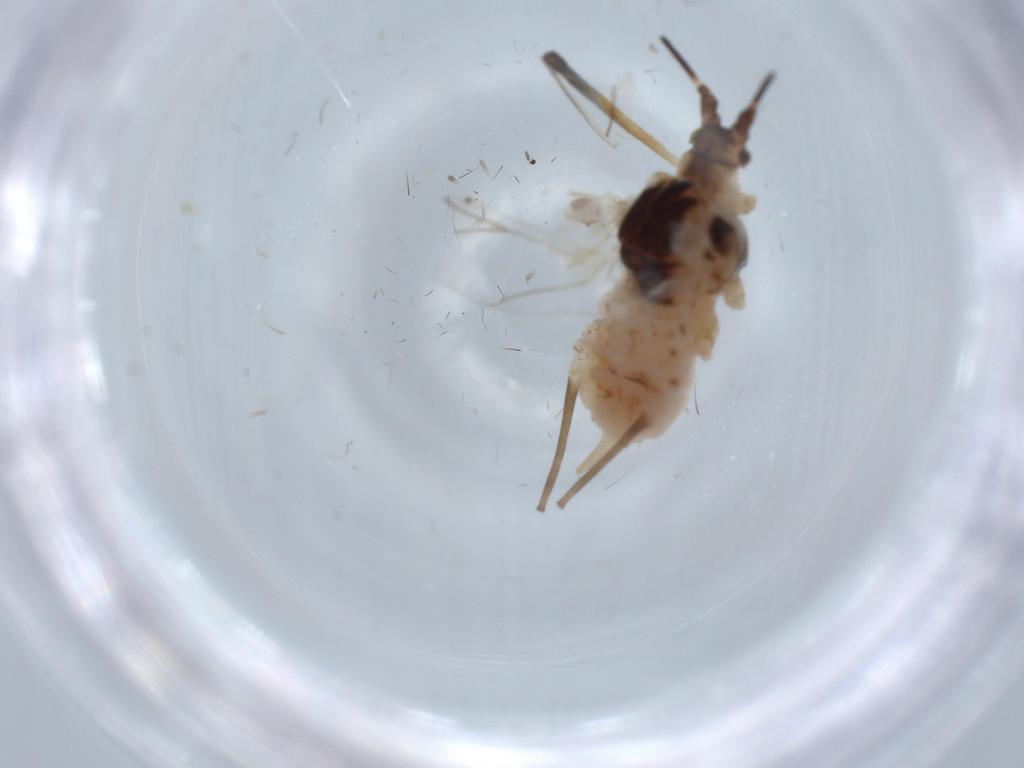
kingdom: Animalia
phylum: Arthropoda
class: Insecta
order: Hemiptera
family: Aphididae
